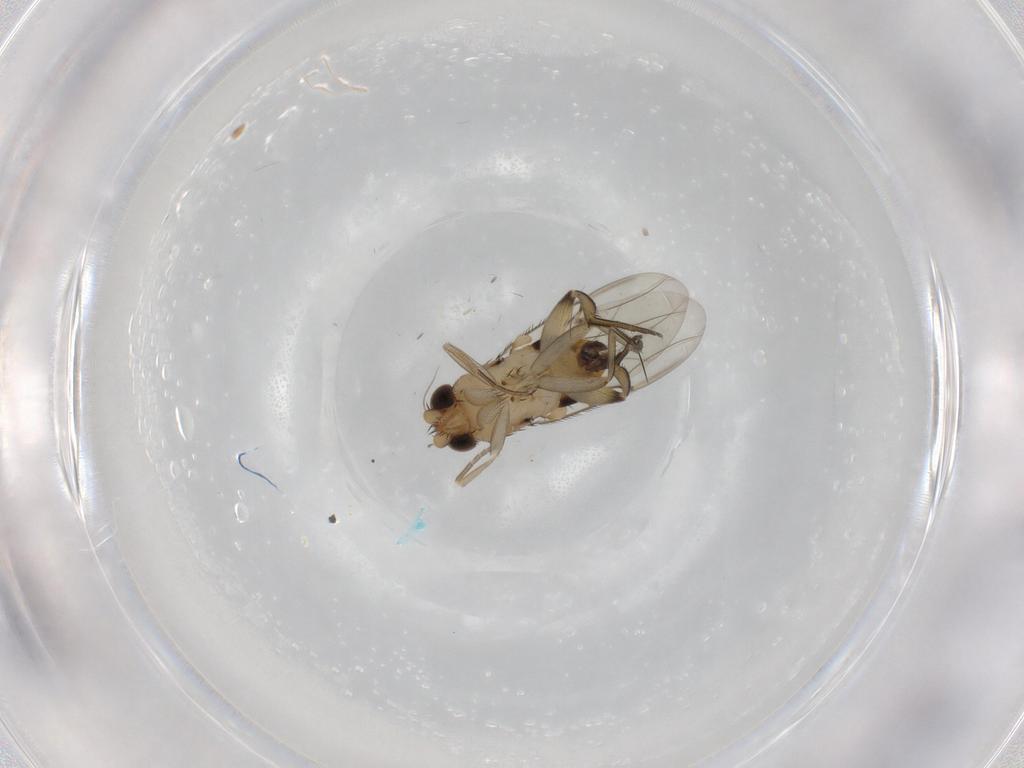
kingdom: Animalia
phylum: Arthropoda
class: Insecta
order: Diptera
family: Phoridae
